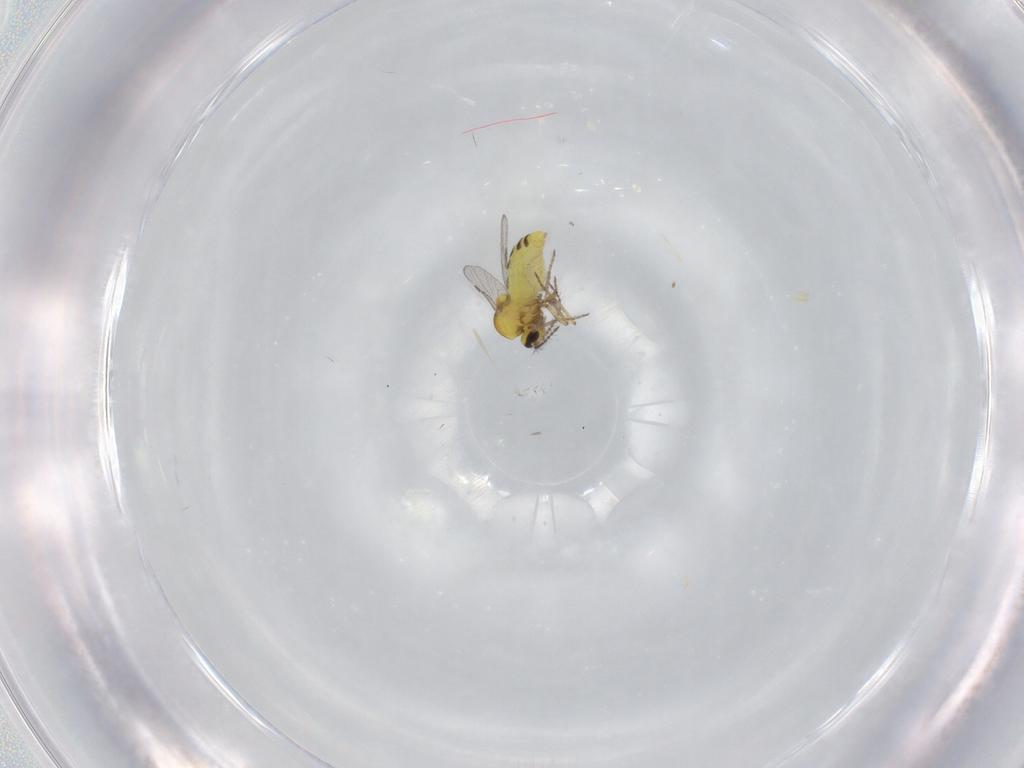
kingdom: Animalia
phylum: Arthropoda
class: Insecta
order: Diptera
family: Ceratopogonidae
